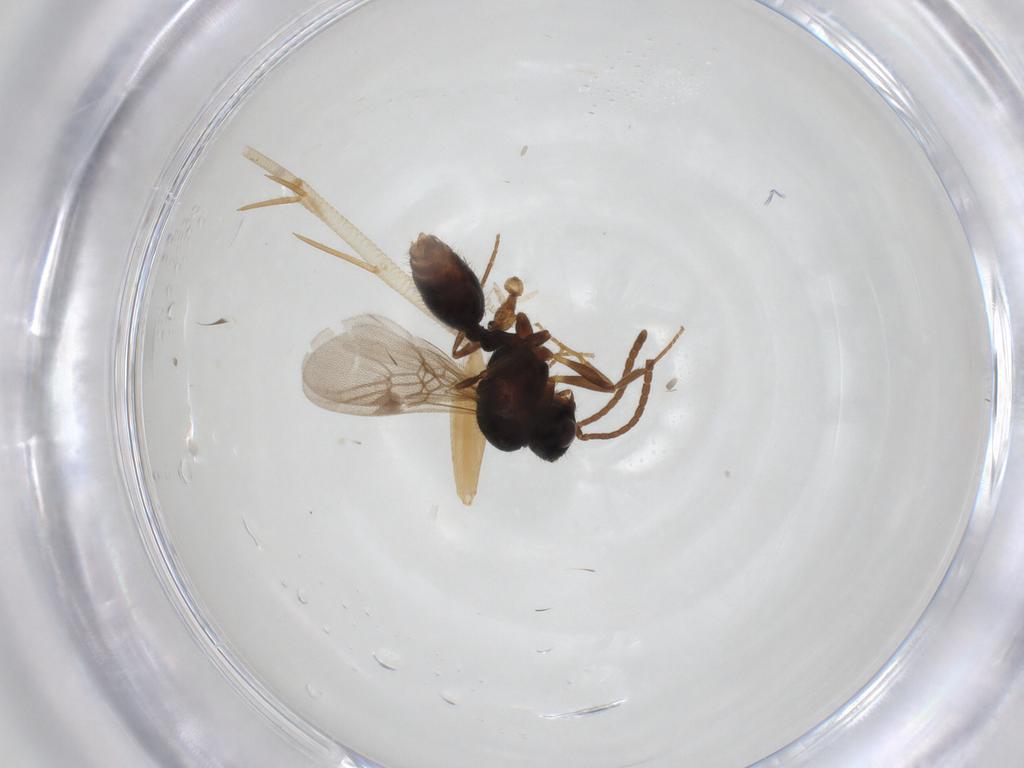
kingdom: Animalia
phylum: Arthropoda
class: Insecta
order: Hymenoptera
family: Formicidae
